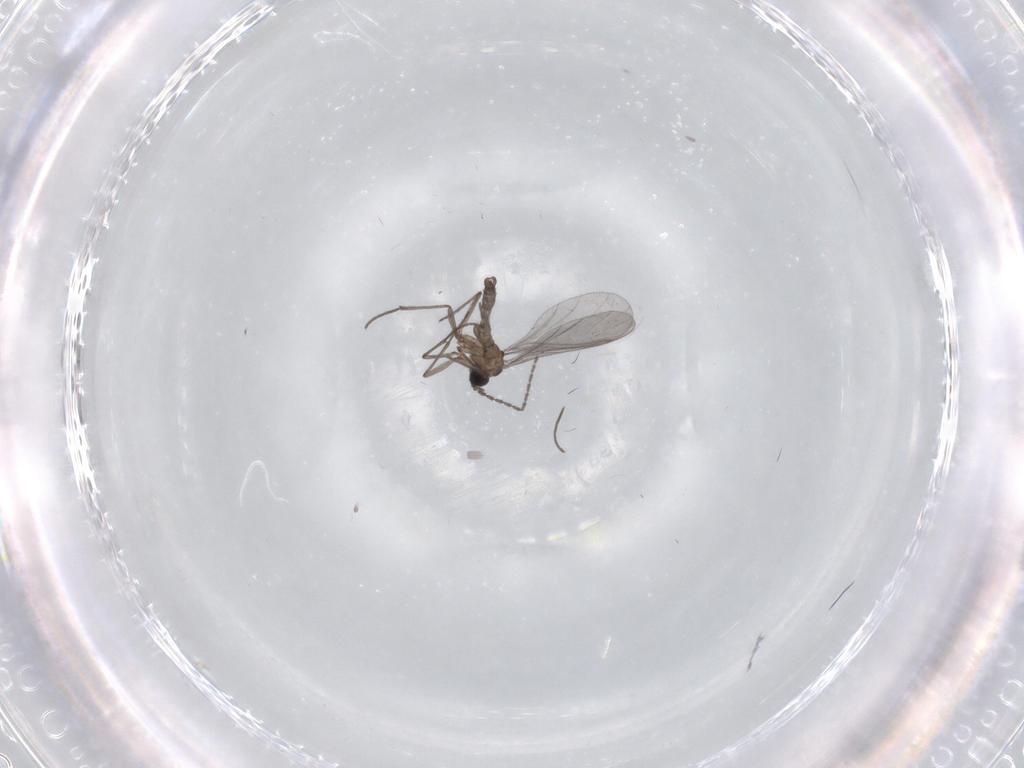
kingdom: Animalia
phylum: Arthropoda
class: Insecta
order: Diptera
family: Sciaridae
